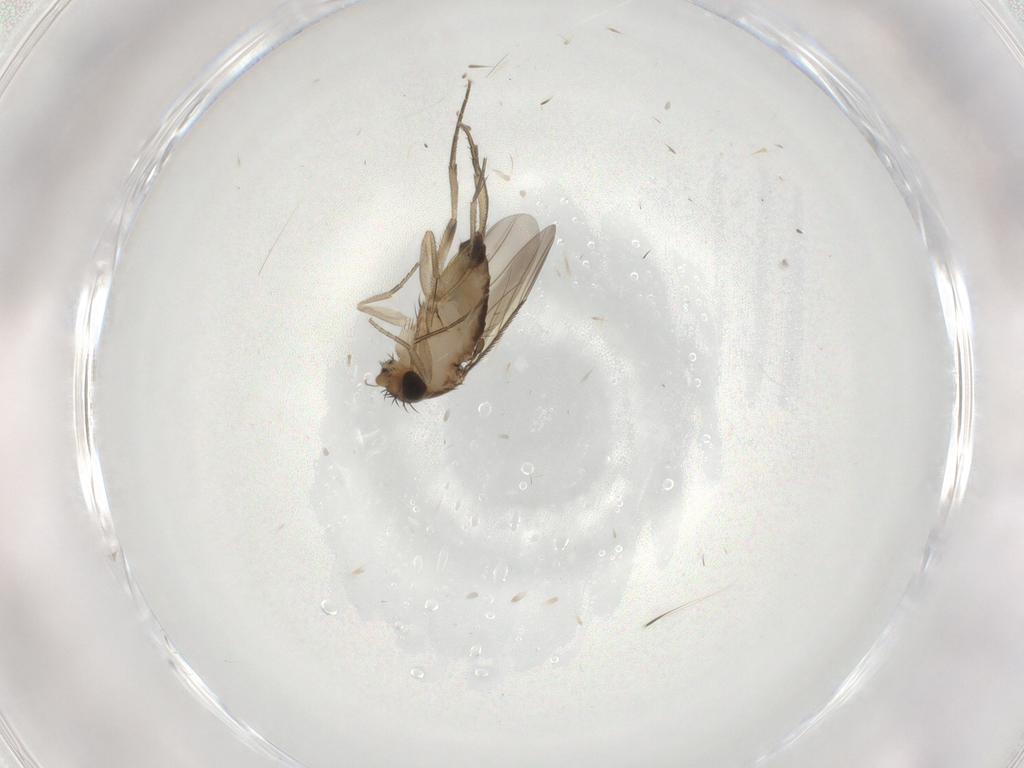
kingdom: Animalia
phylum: Arthropoda
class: Insecta
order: Diptera
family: Phoridae
